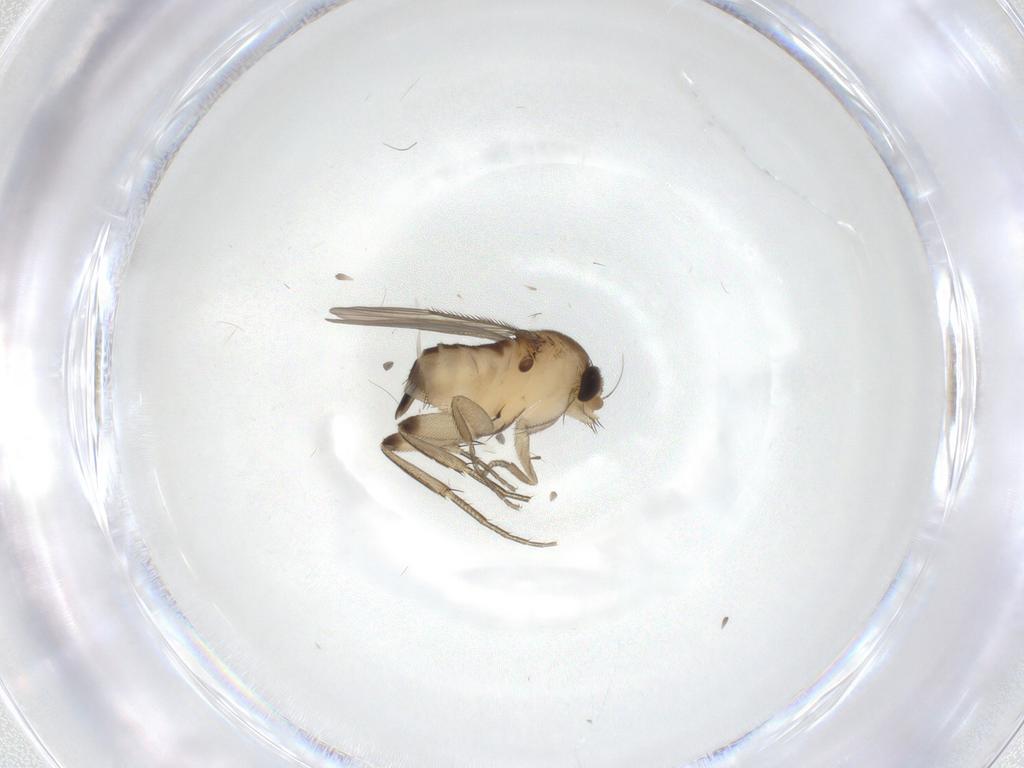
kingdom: Animalia
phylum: Arthropoda
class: Insecta
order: Diptera
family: Phoridae
